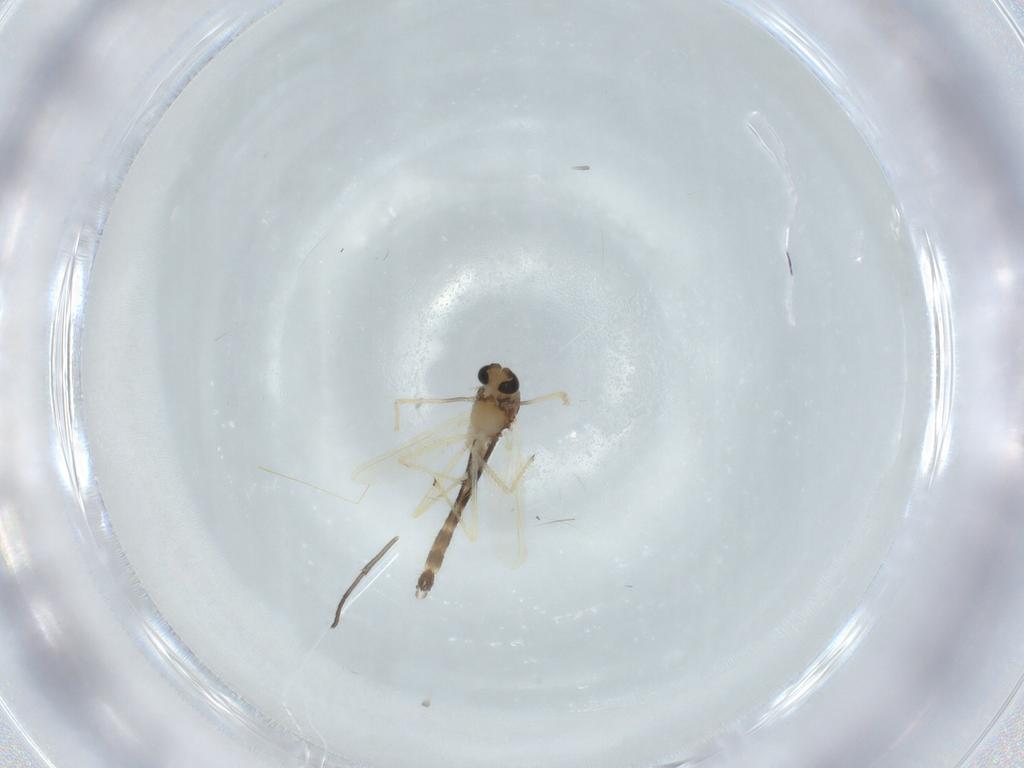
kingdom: Animalia
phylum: Arthropoda
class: Insecta
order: Diptera
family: Chironomidae
